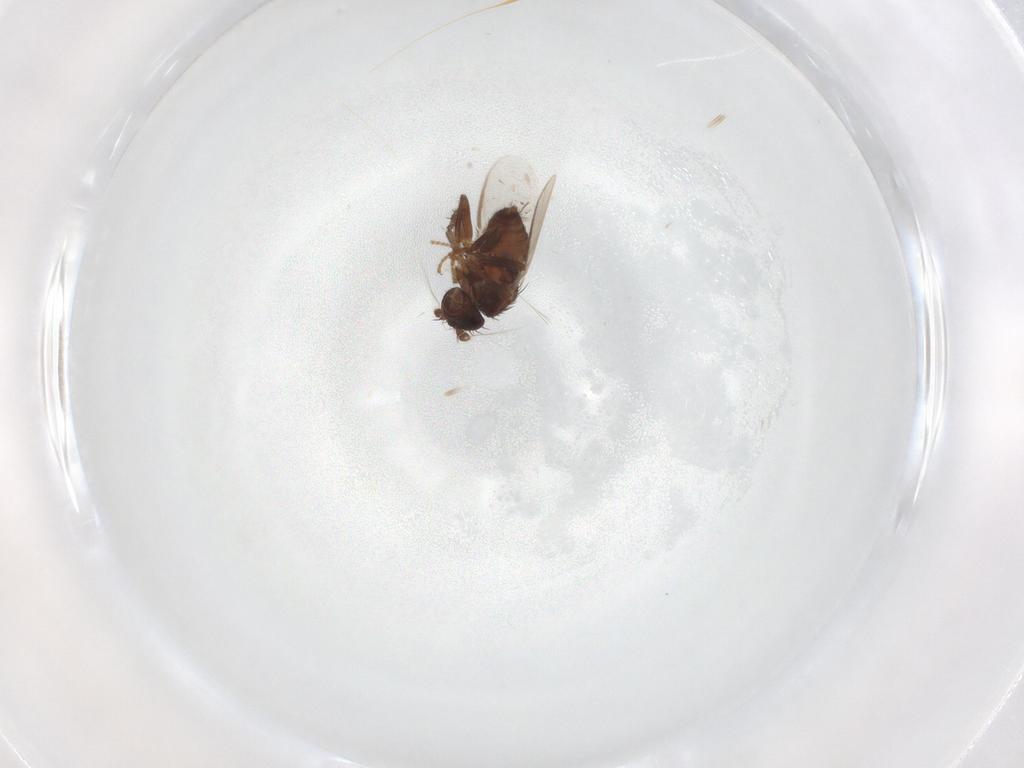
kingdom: Animalia
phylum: Arthropoda
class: Insecta
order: Diptera
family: Sphaeroceridae
